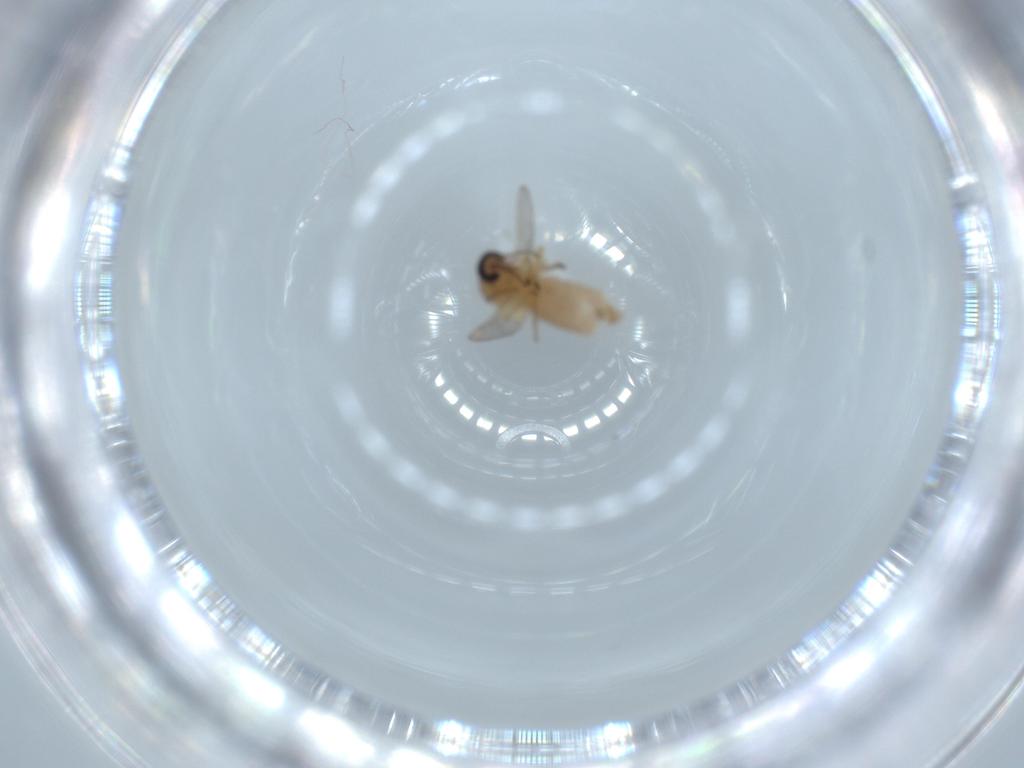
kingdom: Animalia
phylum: Arthropoda
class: Insecta
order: Diptera
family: Ceratopogonidae
